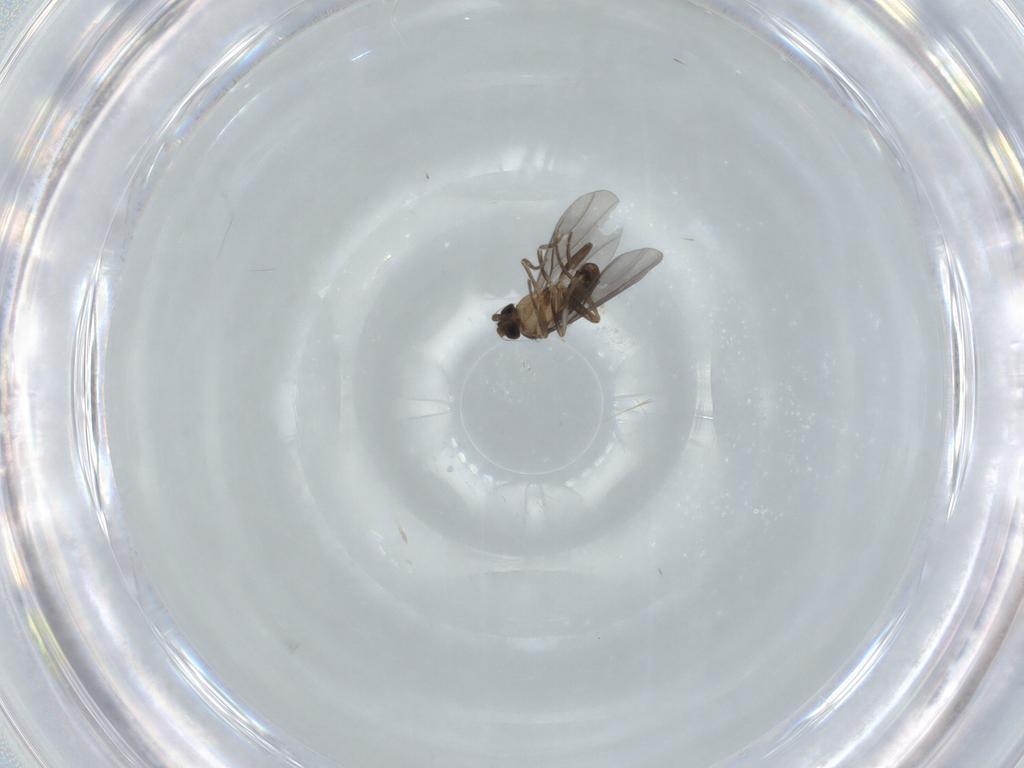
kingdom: Animalia
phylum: Arthropoda
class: Insecta
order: Diptera
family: Phoridae
